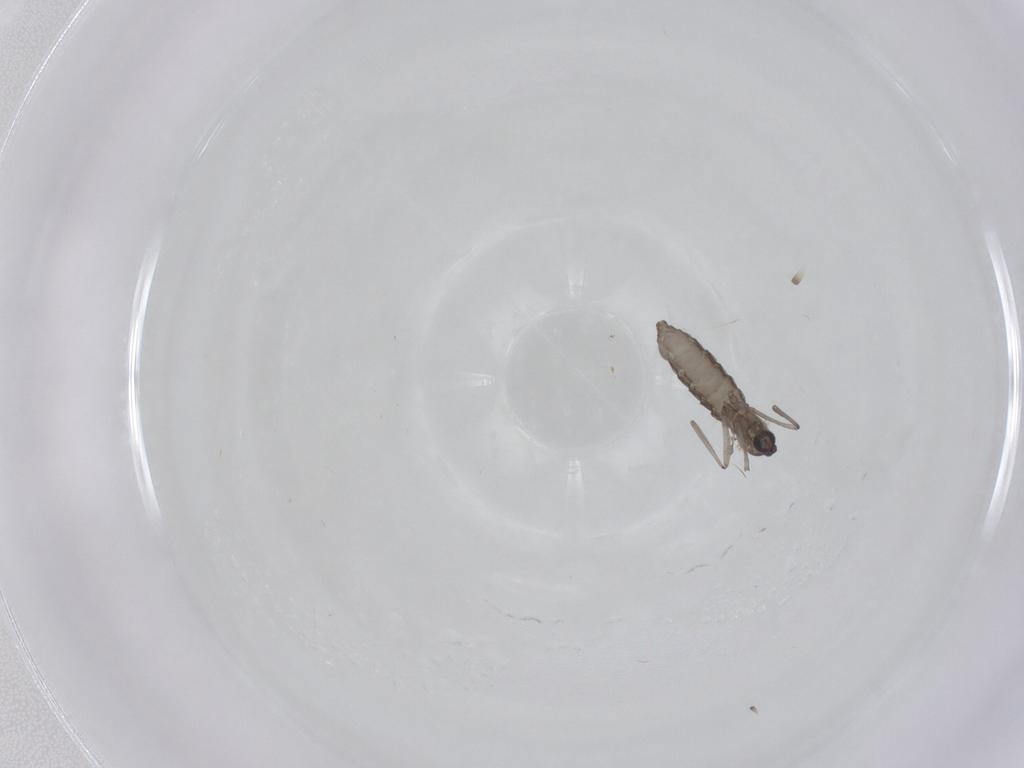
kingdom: Animalia
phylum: Arthropoda
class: Insecta
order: Diptera
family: Cecidomyiidae
